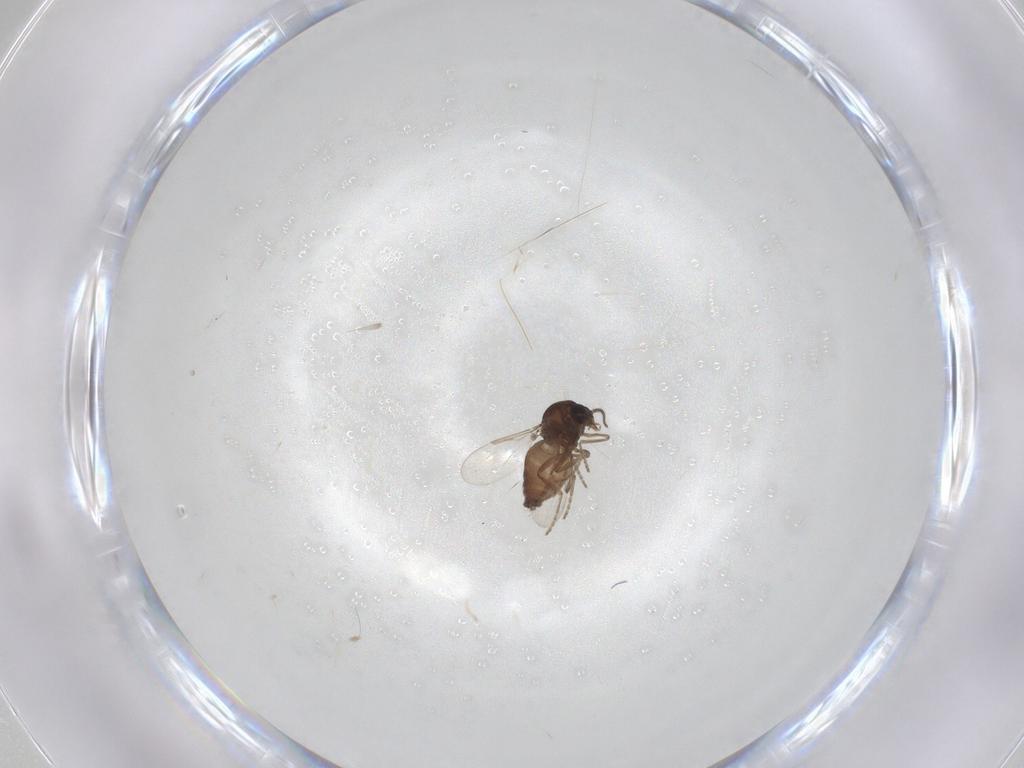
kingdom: Animalia
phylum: Arthropoda
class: Insecta
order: Diptera
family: Ceratopogonidae
